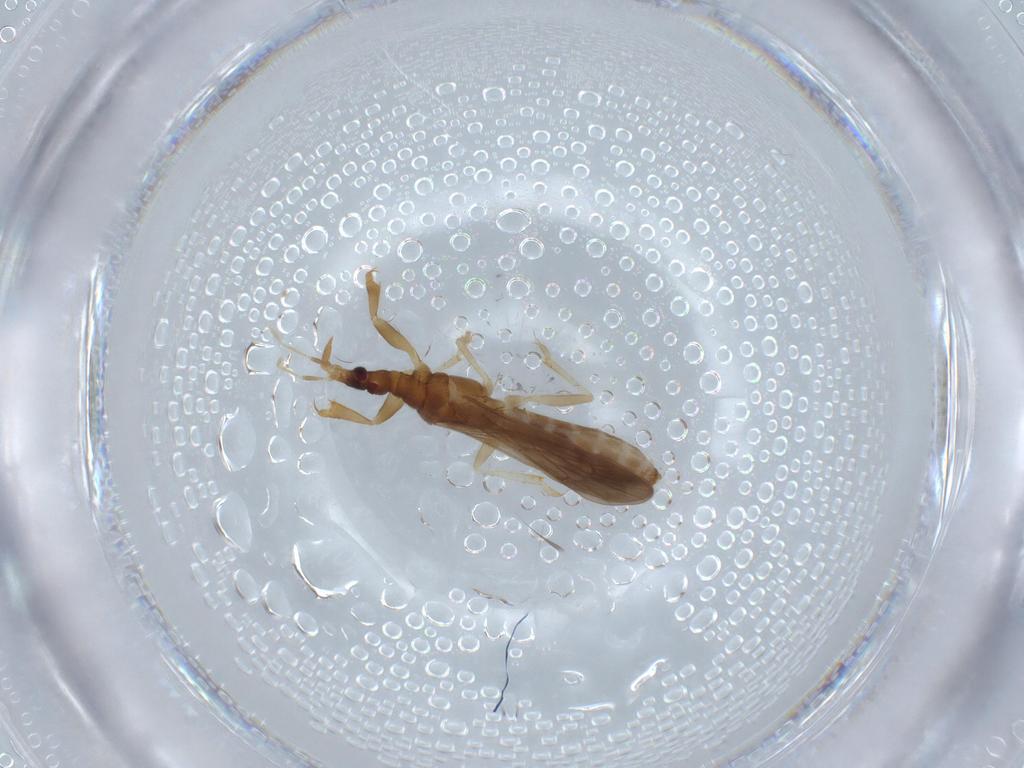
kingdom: Animalia
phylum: Arthropoda
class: Insecta
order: Hemiptera
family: Enicocephalidae
